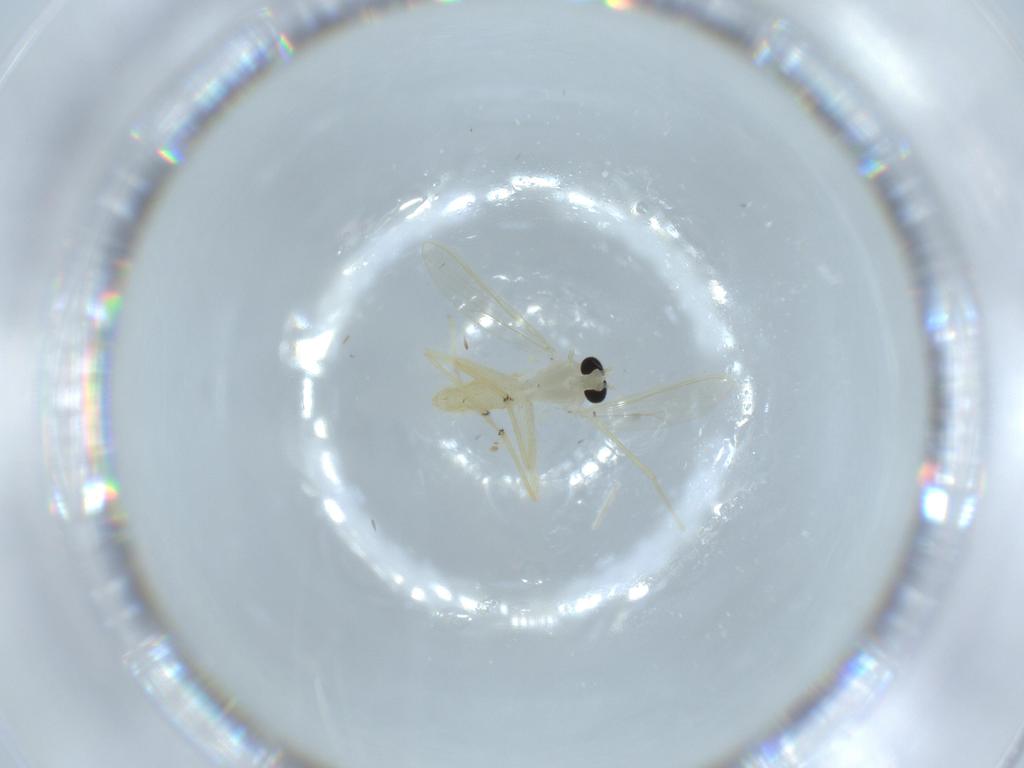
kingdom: Animalia
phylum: Arthropoda
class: Insecta
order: Diptera
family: Chironomidae
